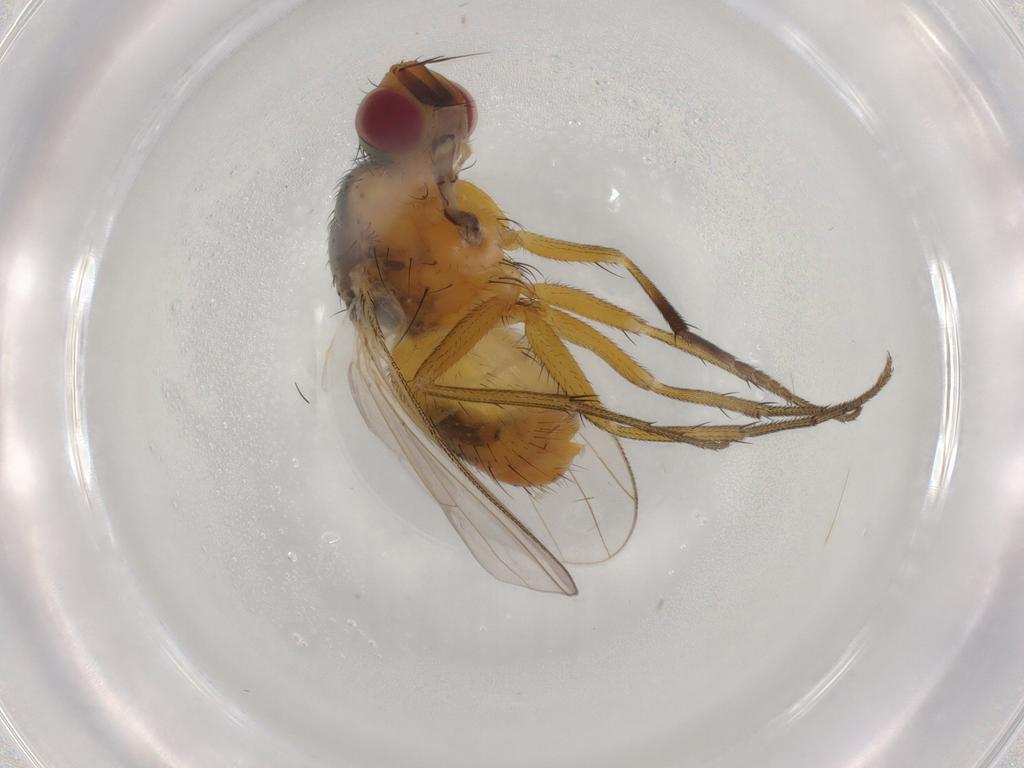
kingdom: Animalia
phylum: Arthropoda
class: Insecta
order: Diptera
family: Muscidae
